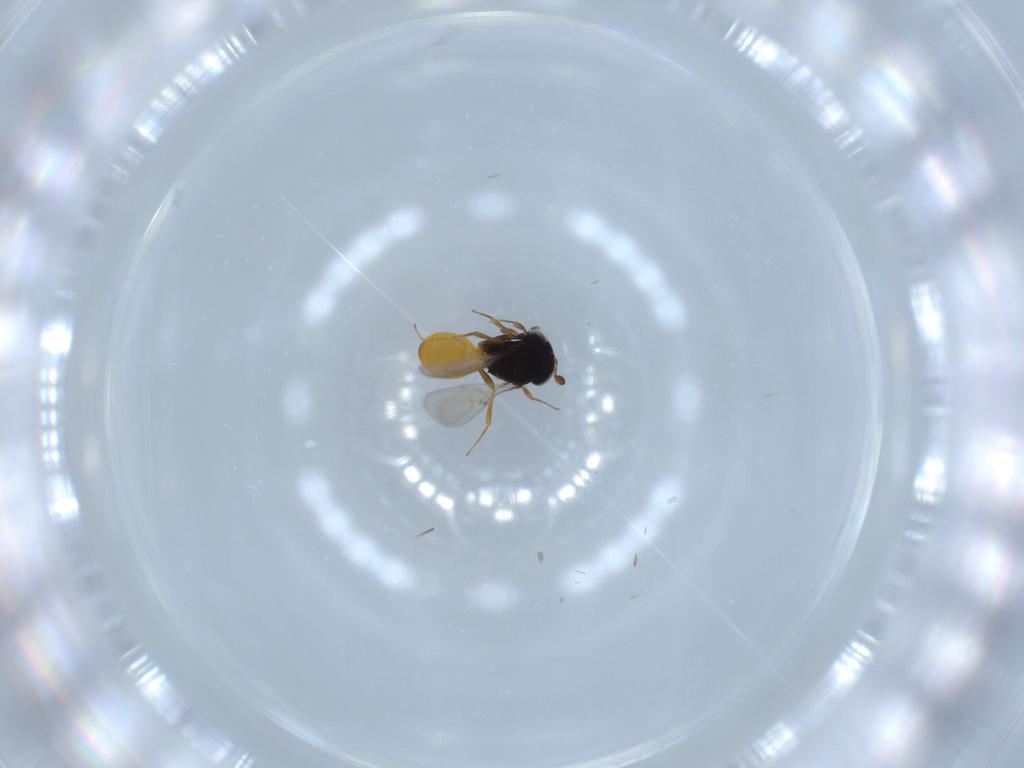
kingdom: Animalia
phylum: Arthropoda
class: Insecta
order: Hymenoptera
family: Scelionidae
